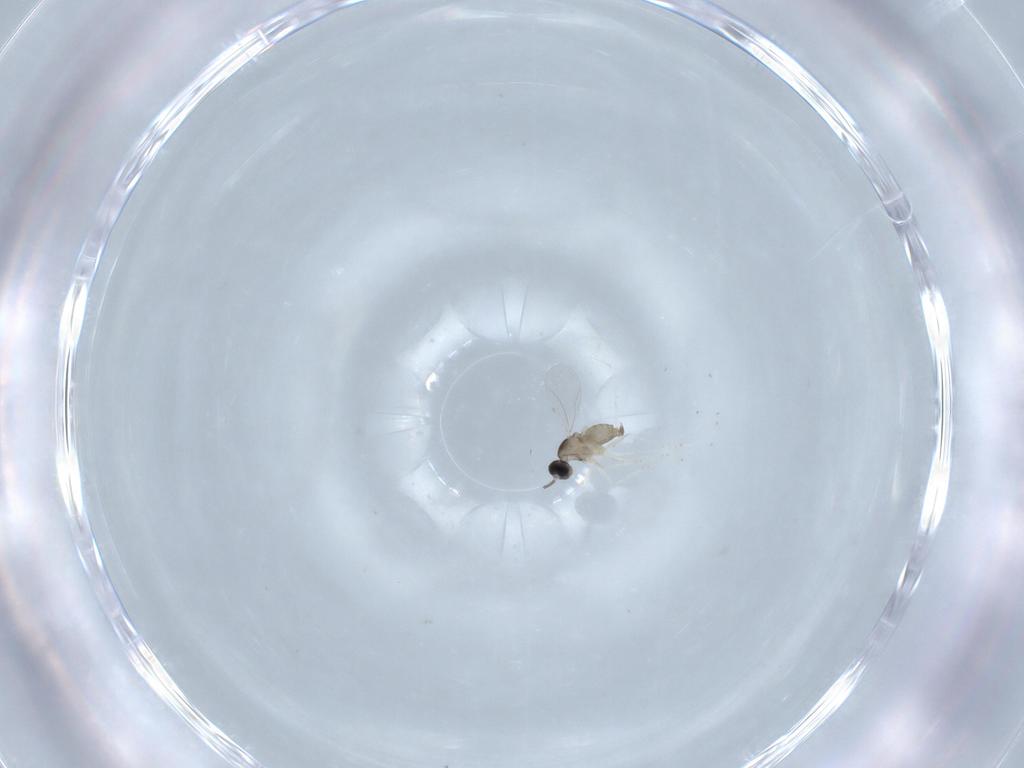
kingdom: Animalia
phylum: Arthropoda
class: Insecta
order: Diptera
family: Cecidomyiidae
